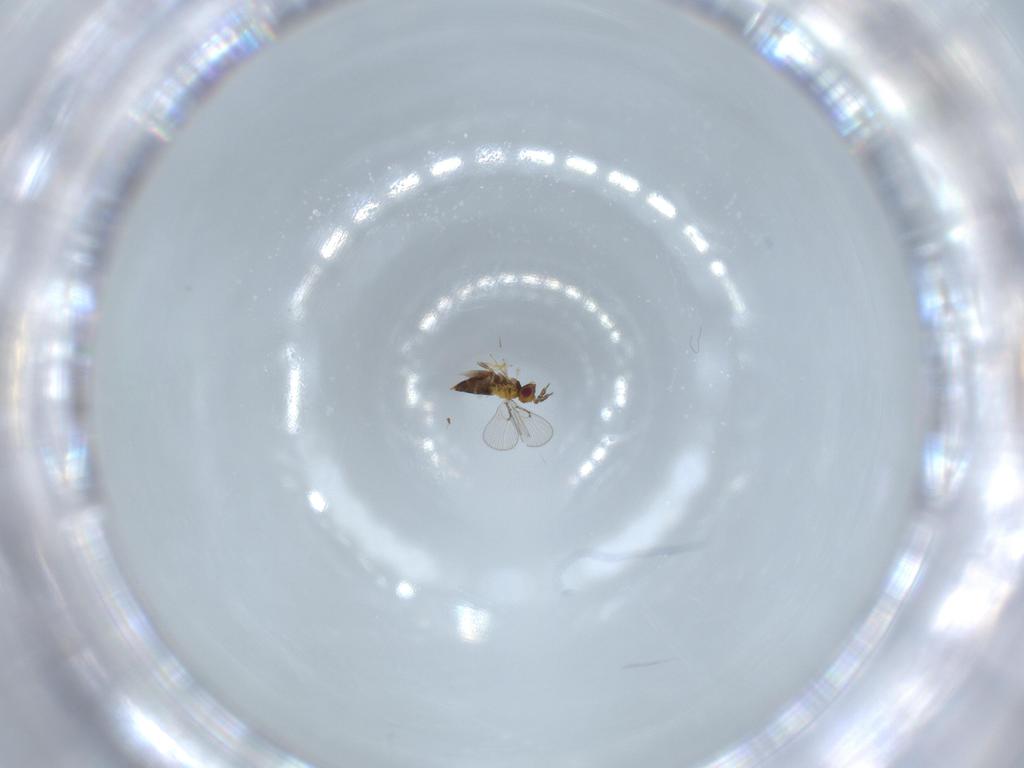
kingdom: Animalia
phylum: Arthropoda
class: Insecta
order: Hymenoptera
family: Trichogrammatidae
